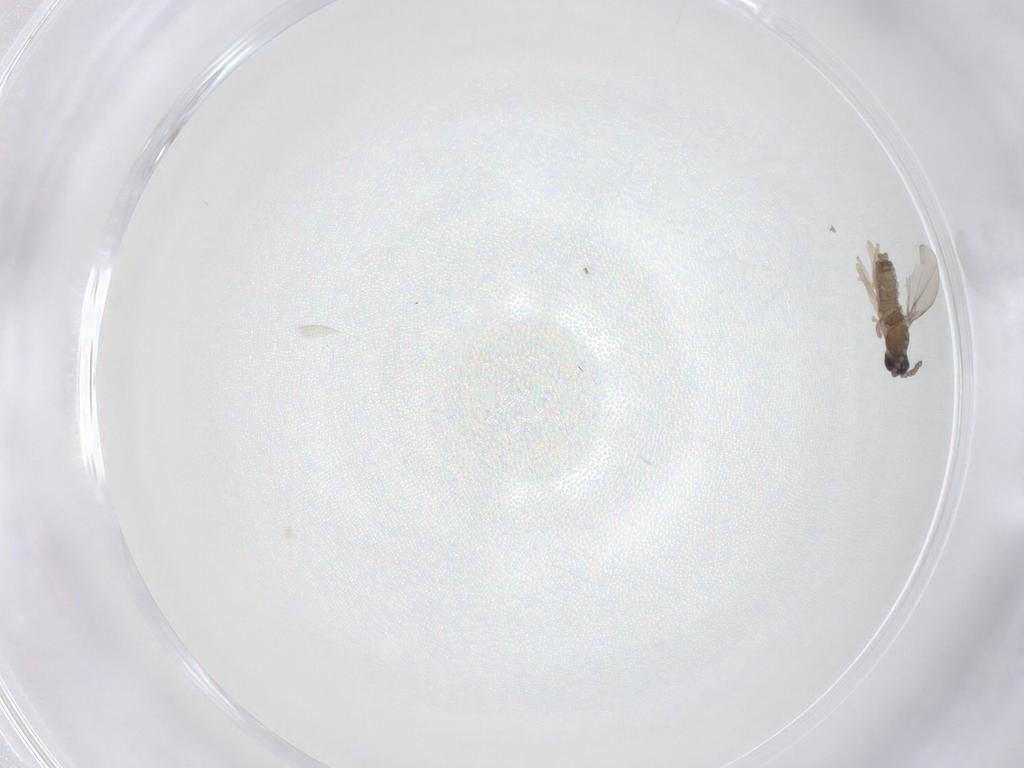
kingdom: Animalia
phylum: Arthropoda
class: Insecta
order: Diptera
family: Cecidomyiidae
